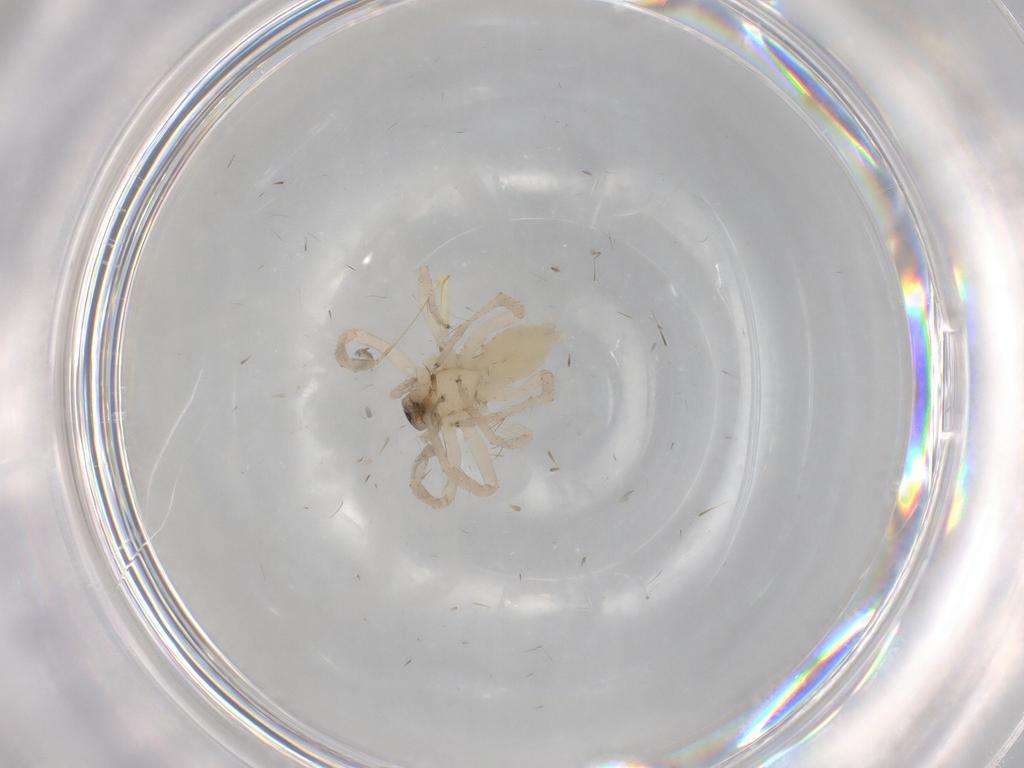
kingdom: Animalia
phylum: Arthropoda
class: Arachnida
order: Araneae
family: Anyphaenidae
